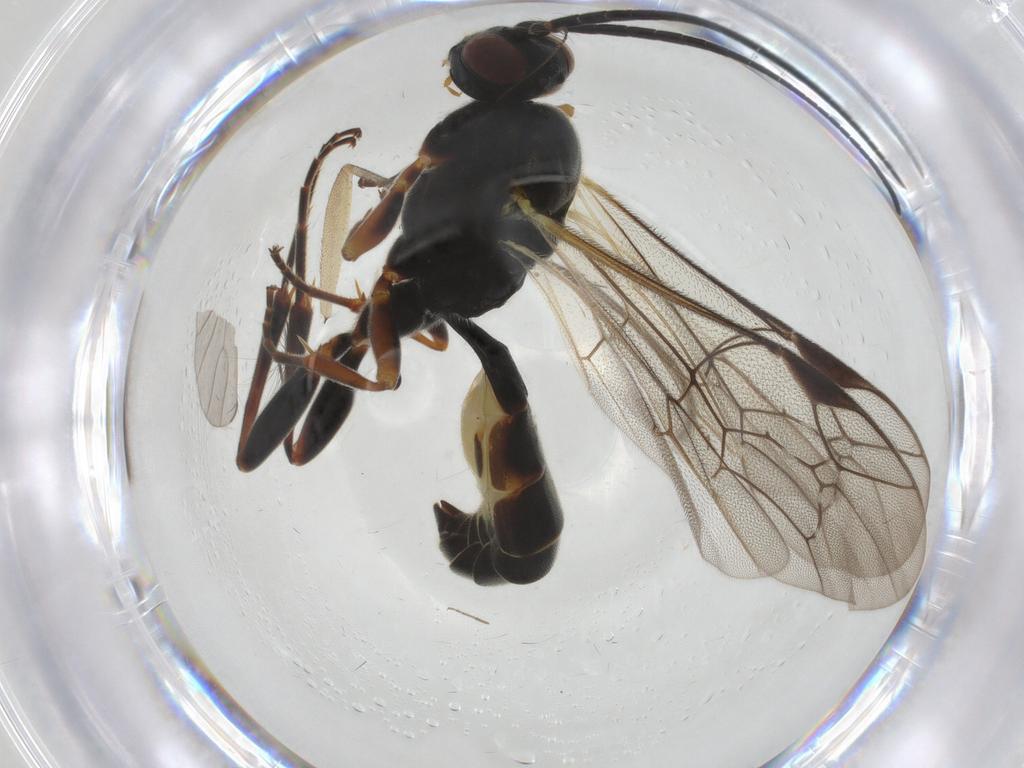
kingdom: Animalia
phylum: Arthropoda
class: Insecta
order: Hymenoptera
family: Ichneumonidae
